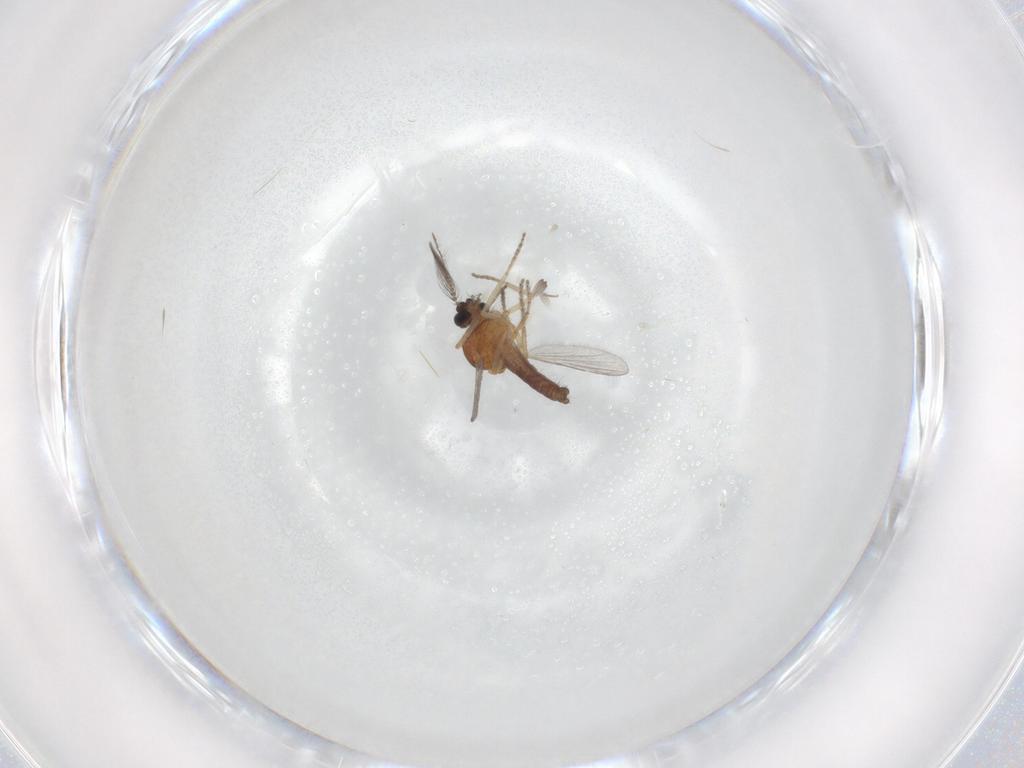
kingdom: Animalia
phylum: Arthropoda
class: Insecta
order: Diptera
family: Ceratopogonidae
